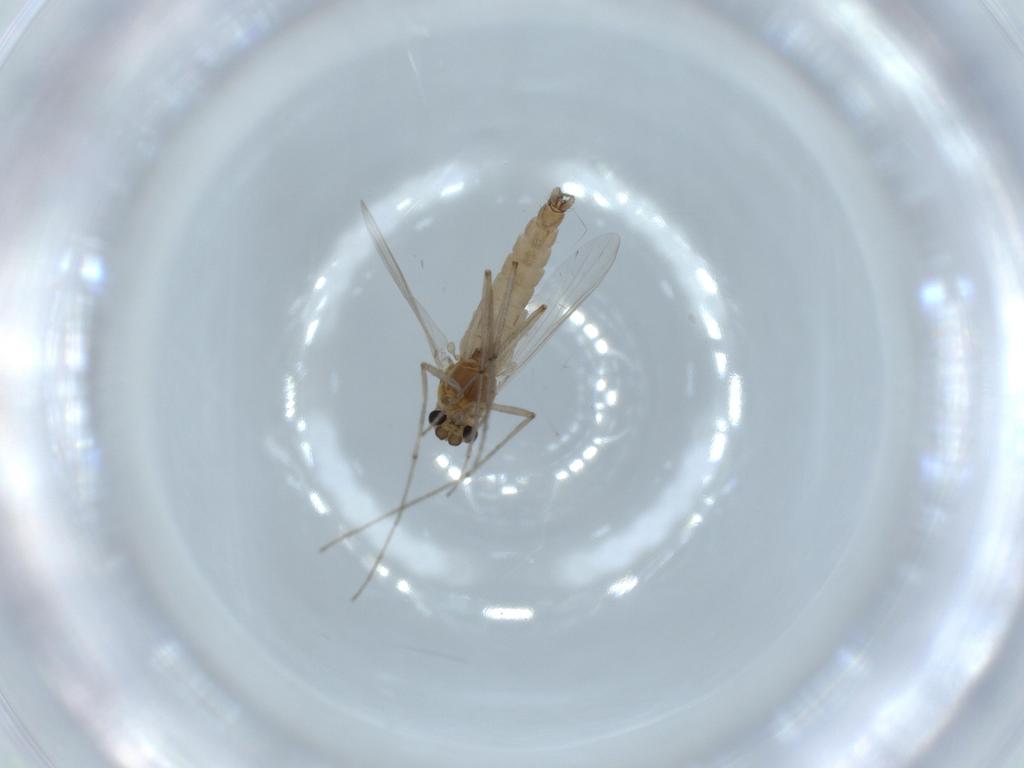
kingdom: Animalia
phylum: Arthropoda
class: Insecta
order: Diptera
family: Chironomidae
